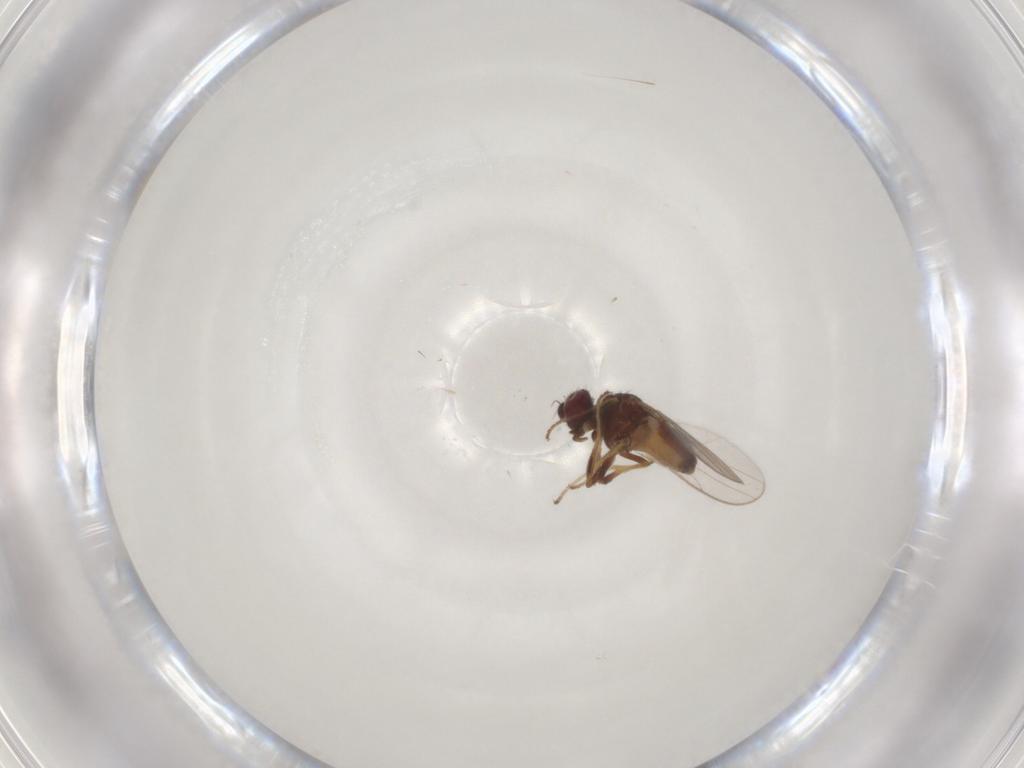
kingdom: Animalia
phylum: Arthropoda
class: Insecta
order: Diptera
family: Chloropidae
